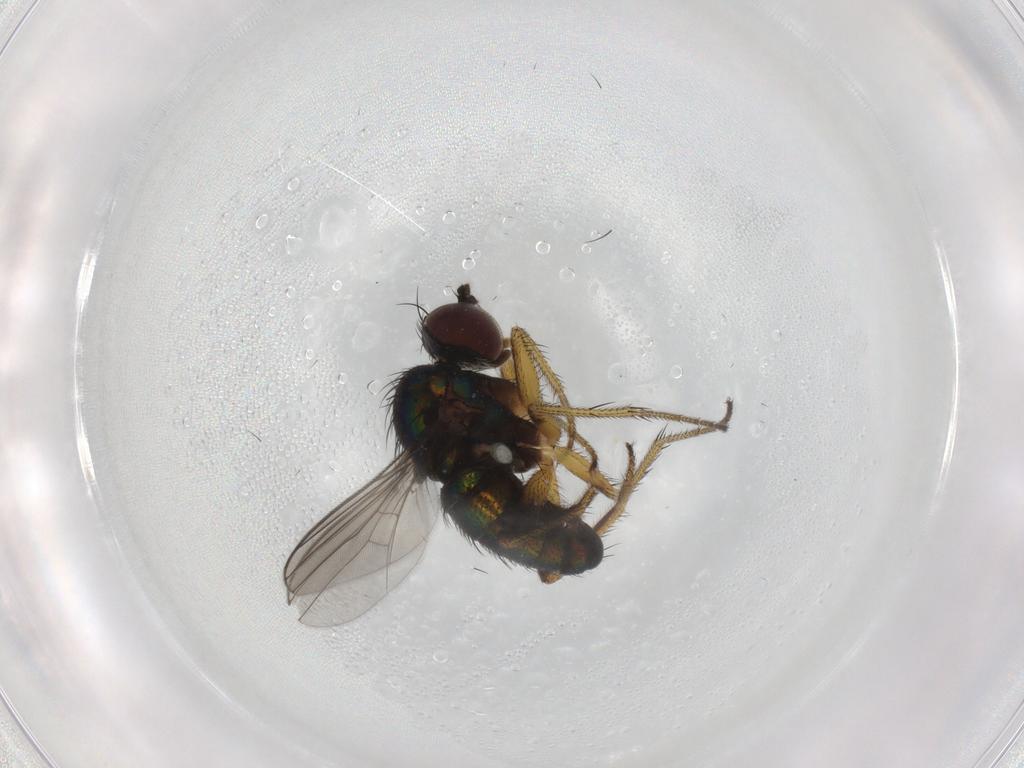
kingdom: Animalia
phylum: Arthropoda
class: Insecta
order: Diptera
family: Dolichopodidae
